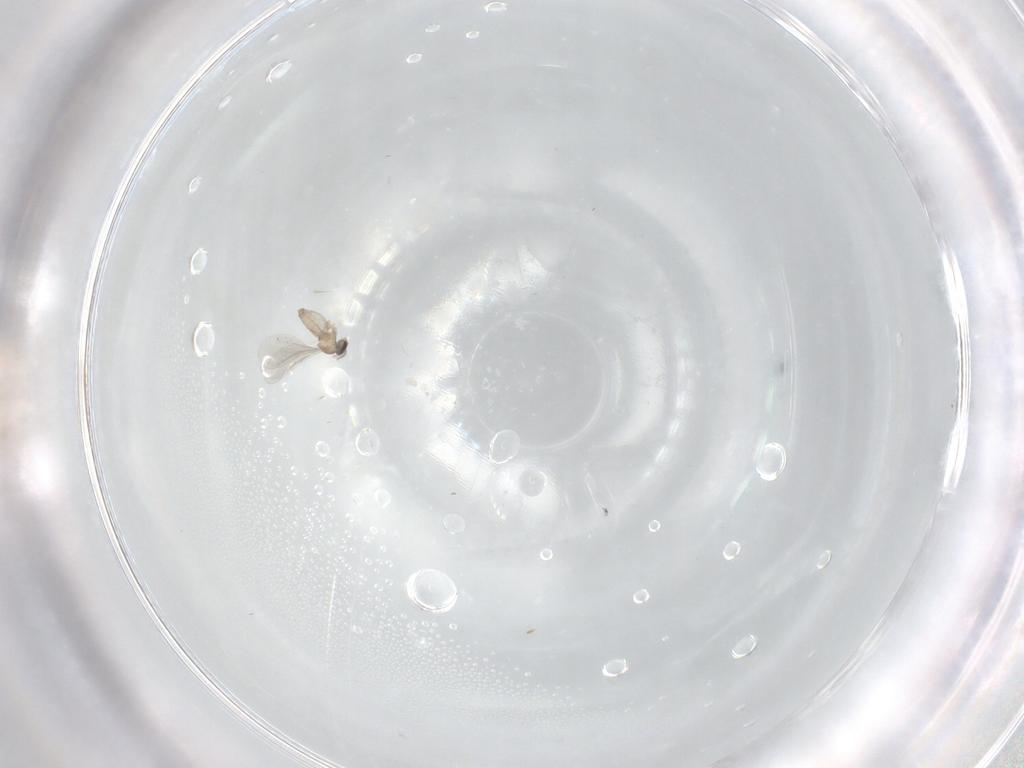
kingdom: Animalia
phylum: Arthropoda
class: Insecta
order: Diptera
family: Cecidomyiidae
